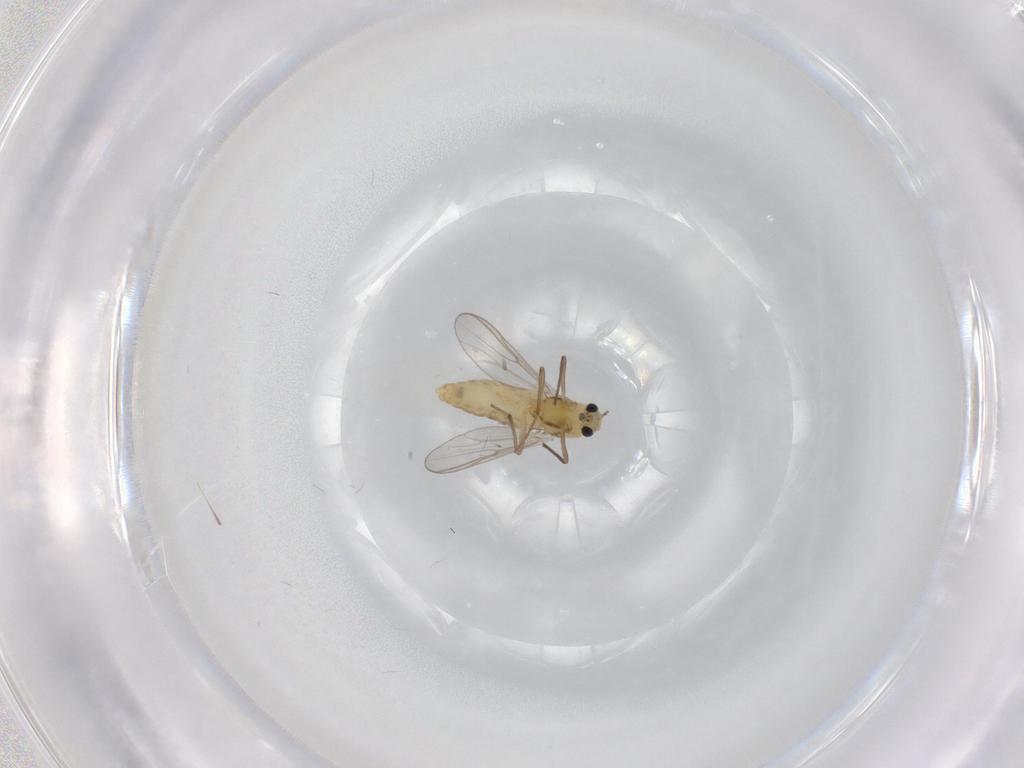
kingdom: Animalia
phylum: Arthropoda
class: Insecta
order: Diptera
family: Chironomidae
